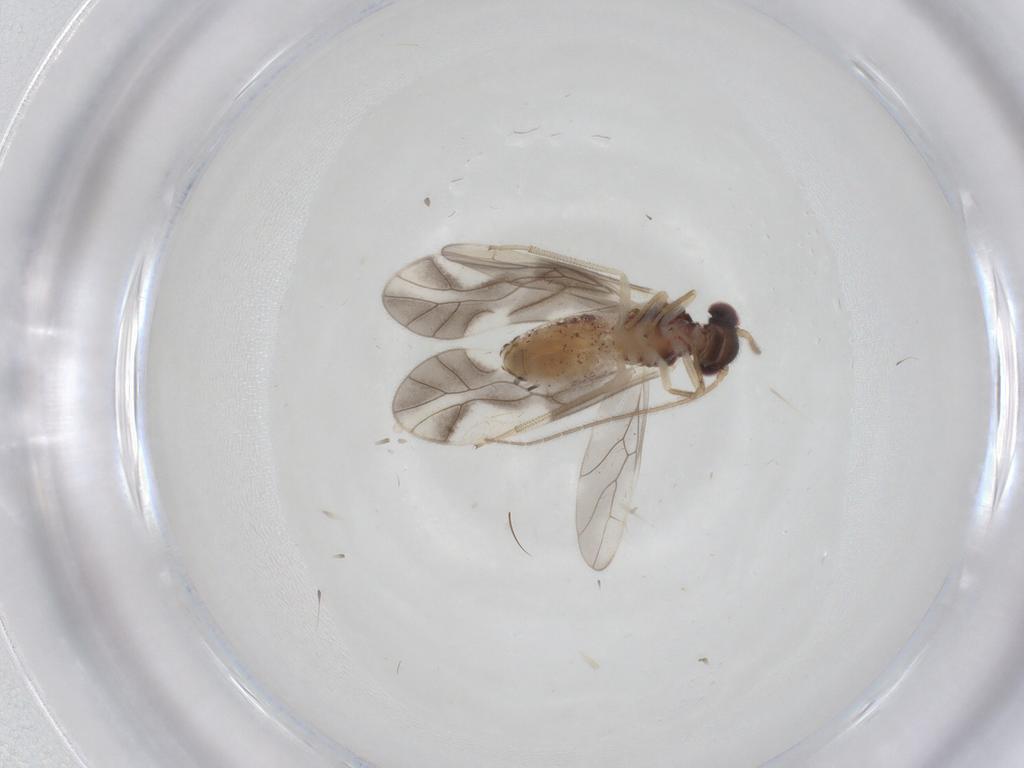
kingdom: Animalia
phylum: Arthropoda
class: Insecta
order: Psocodea
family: Caeciliusidae
